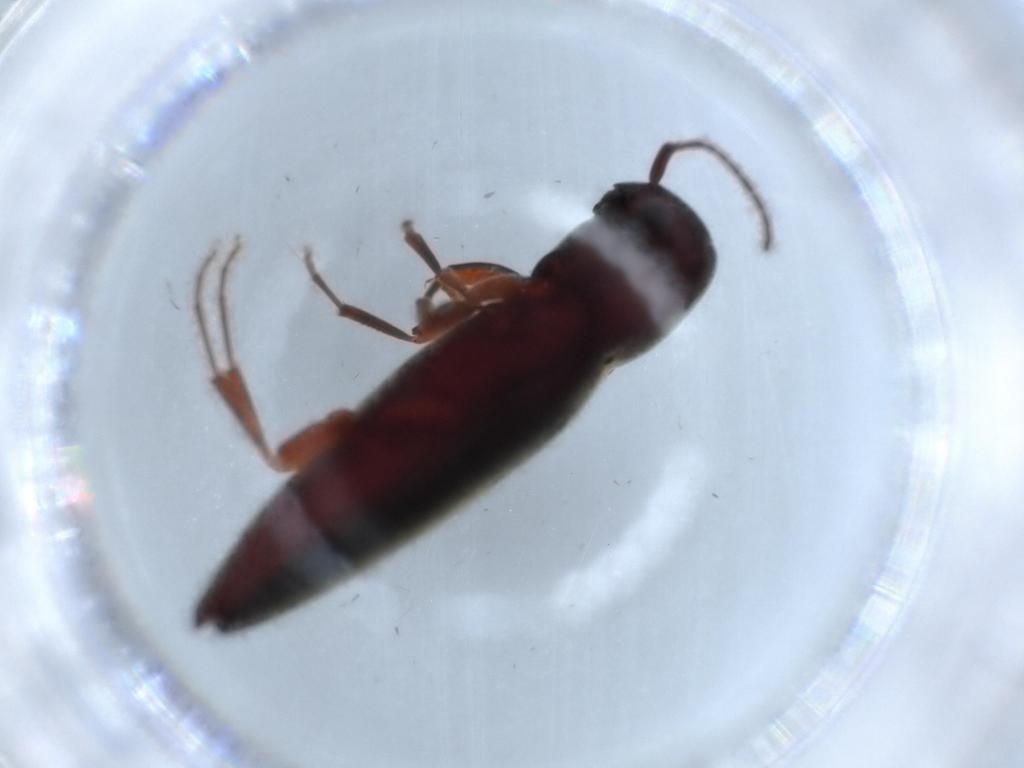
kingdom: Animalia
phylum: Arthropoda
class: Insecta
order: Coleoptera
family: Eucnemidae
